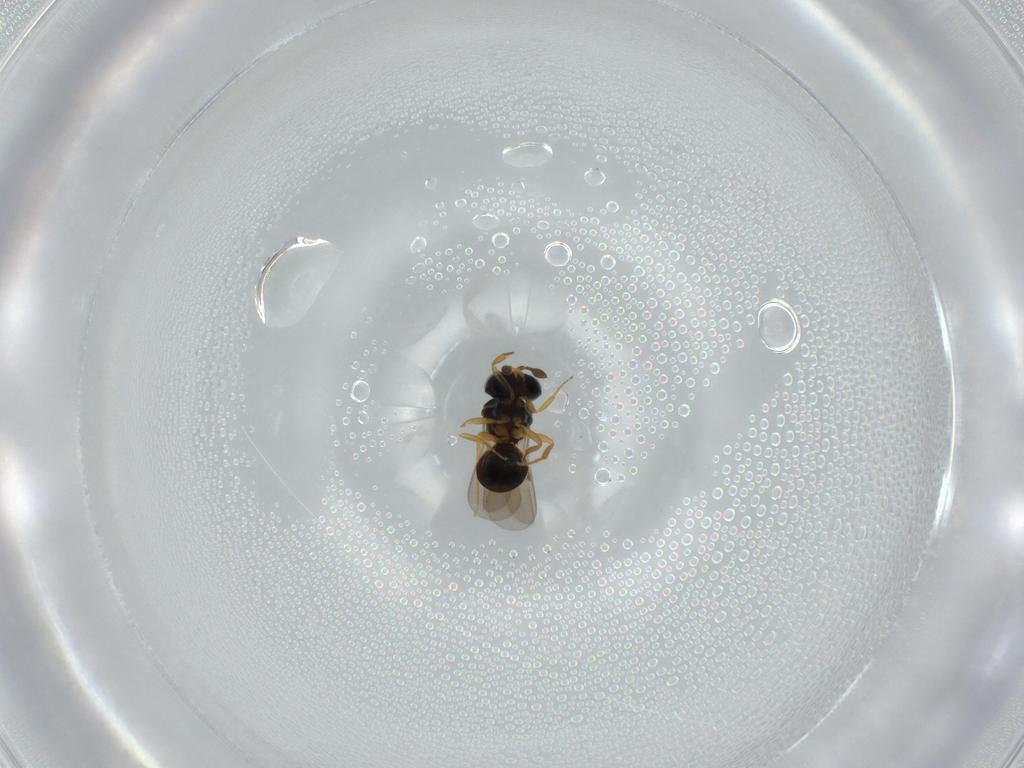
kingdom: Animalia
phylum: Arthropoda
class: Insecta
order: Hymenoptera
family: Scelionidae
